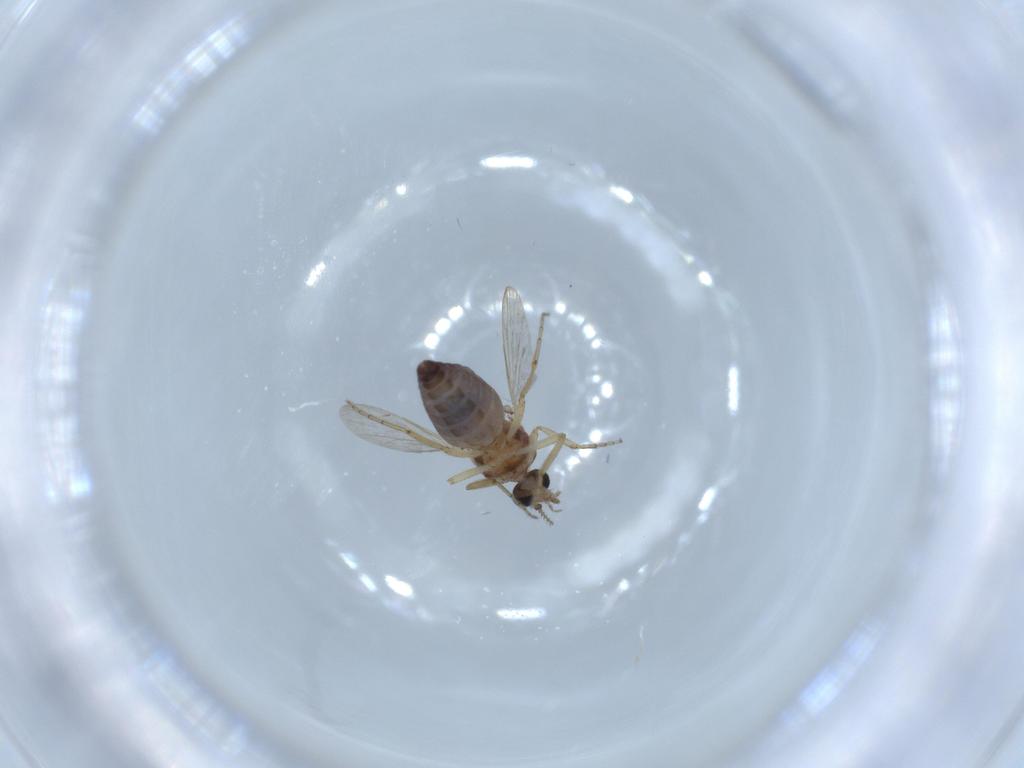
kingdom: Animalia
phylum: Arthropoda
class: Insecta
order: Diptera
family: Ceratopogonidae
